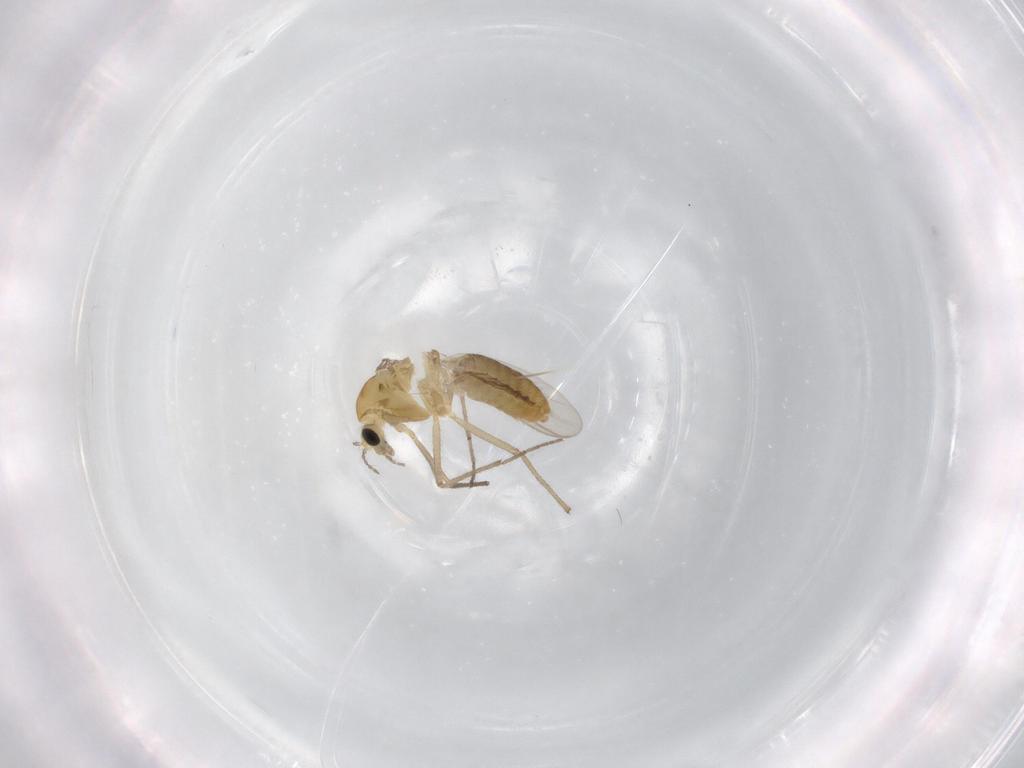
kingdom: Animalia
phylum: Arthropoda
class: Insecta
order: Diptera
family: Chironomidae
